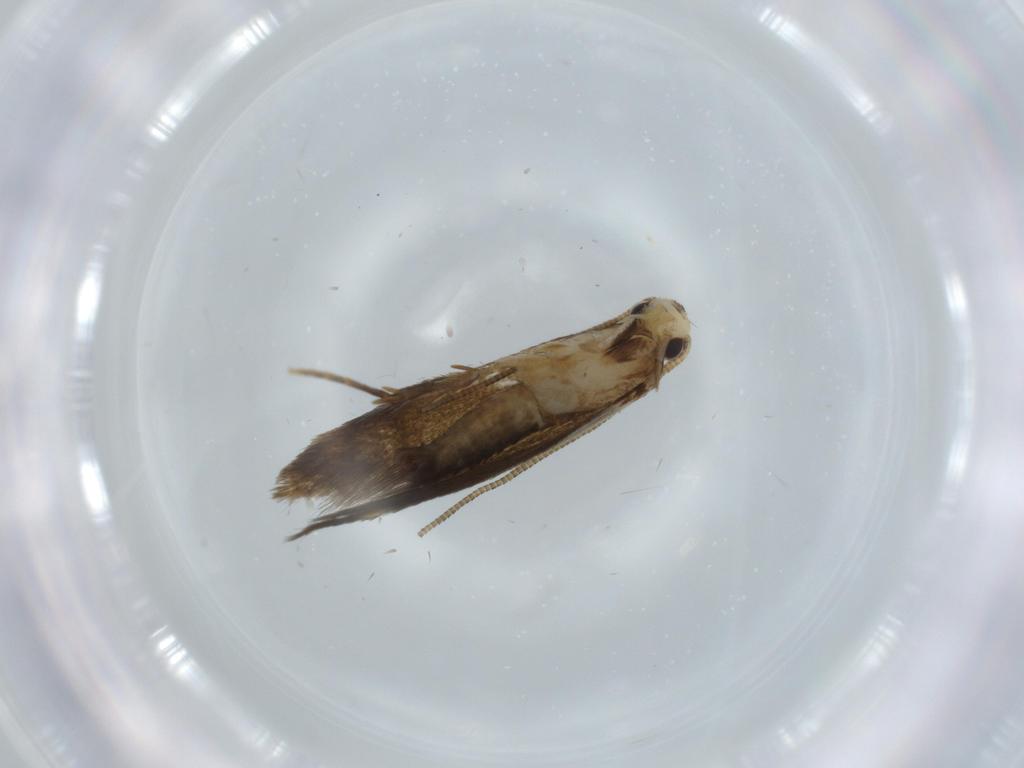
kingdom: Animalia
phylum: Arthropoda
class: Insecta
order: Lepidoptera
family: Tineidae
